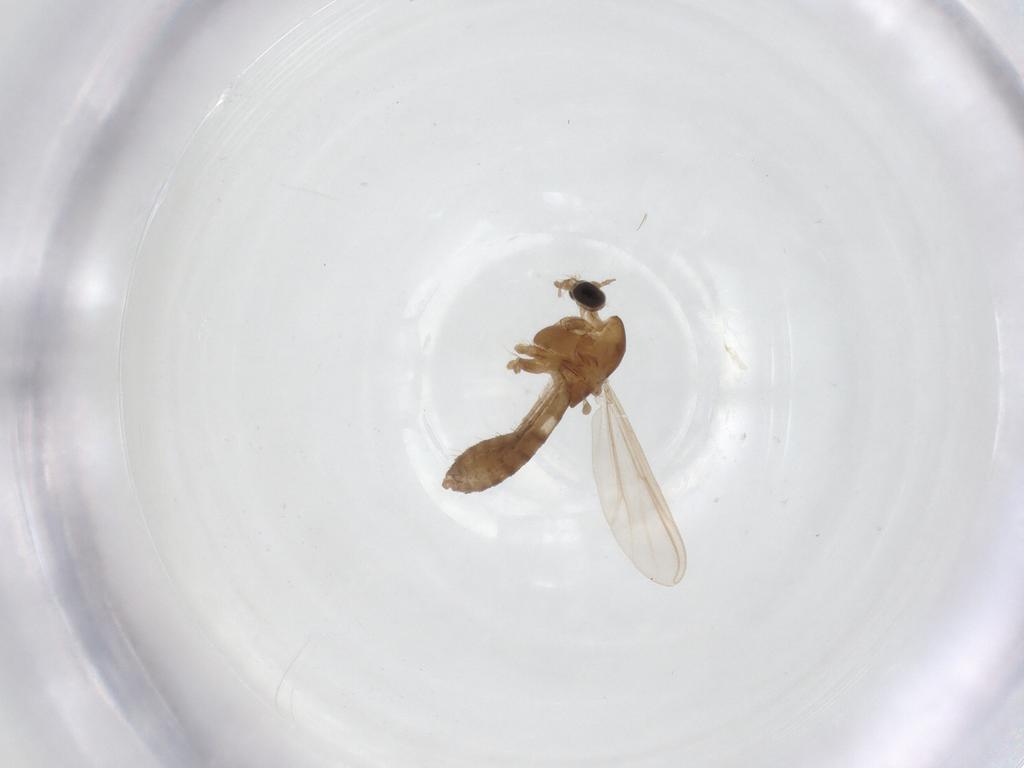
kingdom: Animalia
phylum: Arthropoda
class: Insecta
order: Diptera
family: Chironomidae
